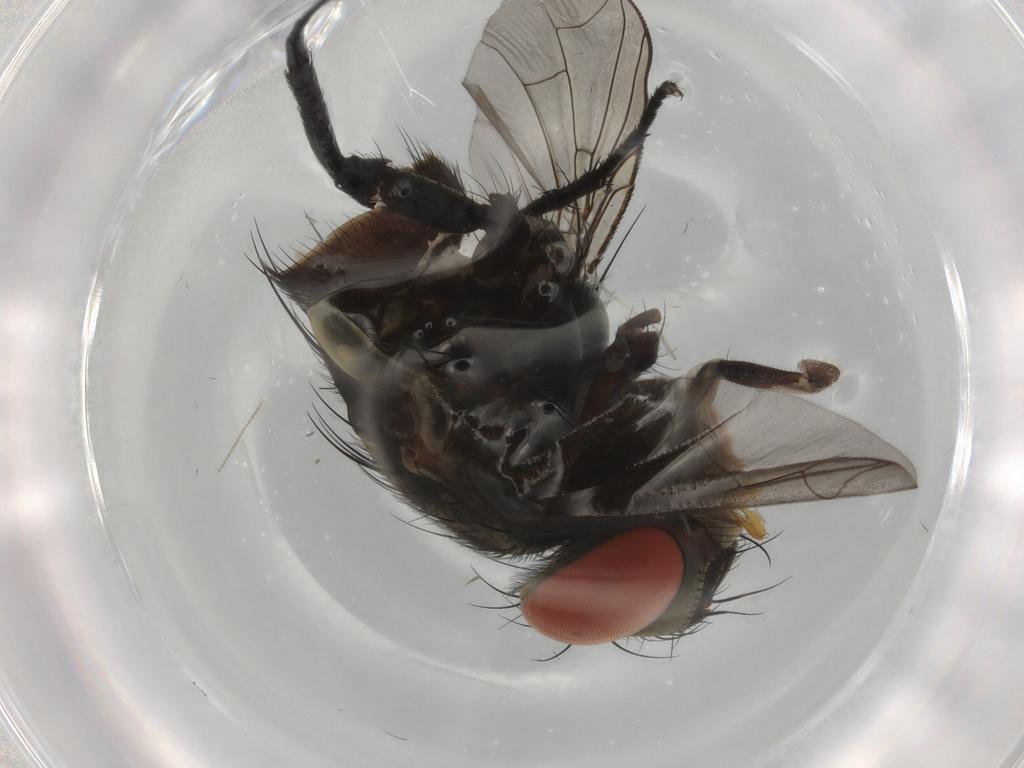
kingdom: Animalia
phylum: Arthropoda
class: Insecta
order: Diptera
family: Sarcophagidae
